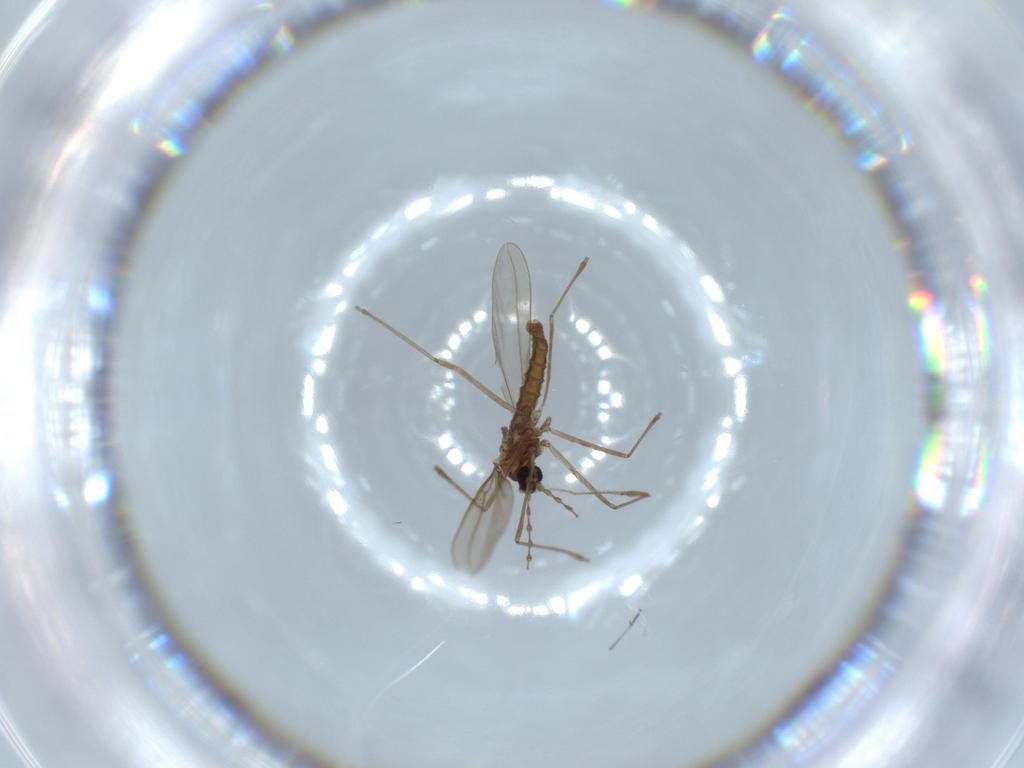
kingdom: Animalia
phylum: Arthropoda
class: Insecta
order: Diptera
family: Cecidomyiidae
